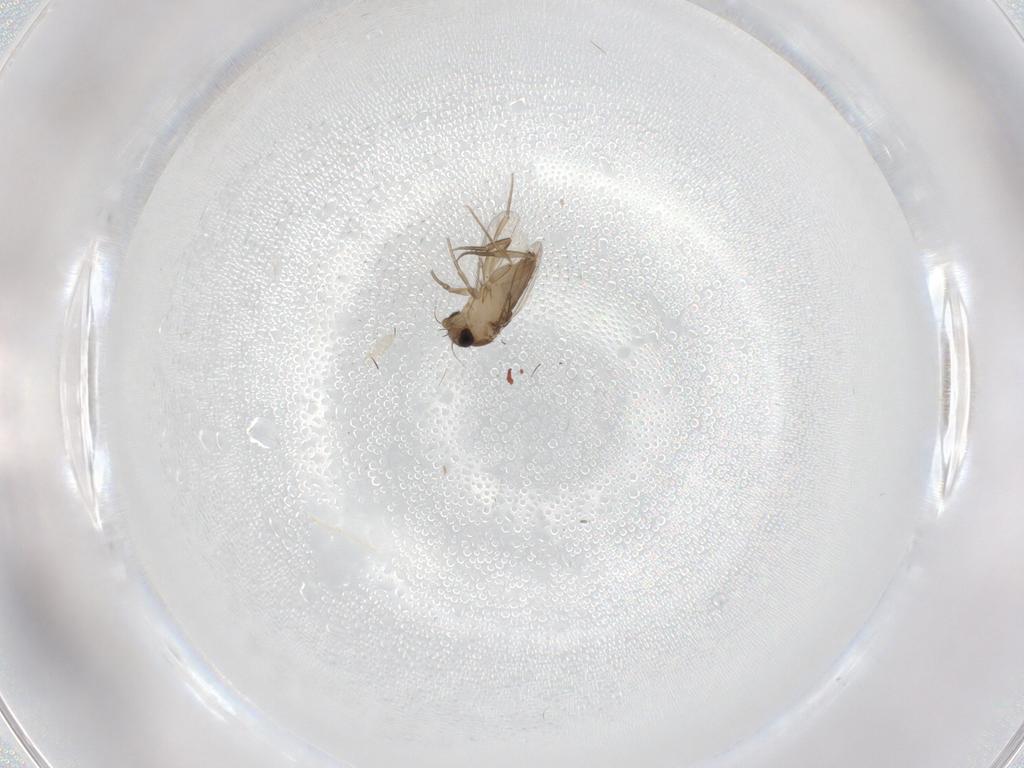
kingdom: Animalia
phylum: Arthropoda
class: Insecta
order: Diptera
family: Phoridae
